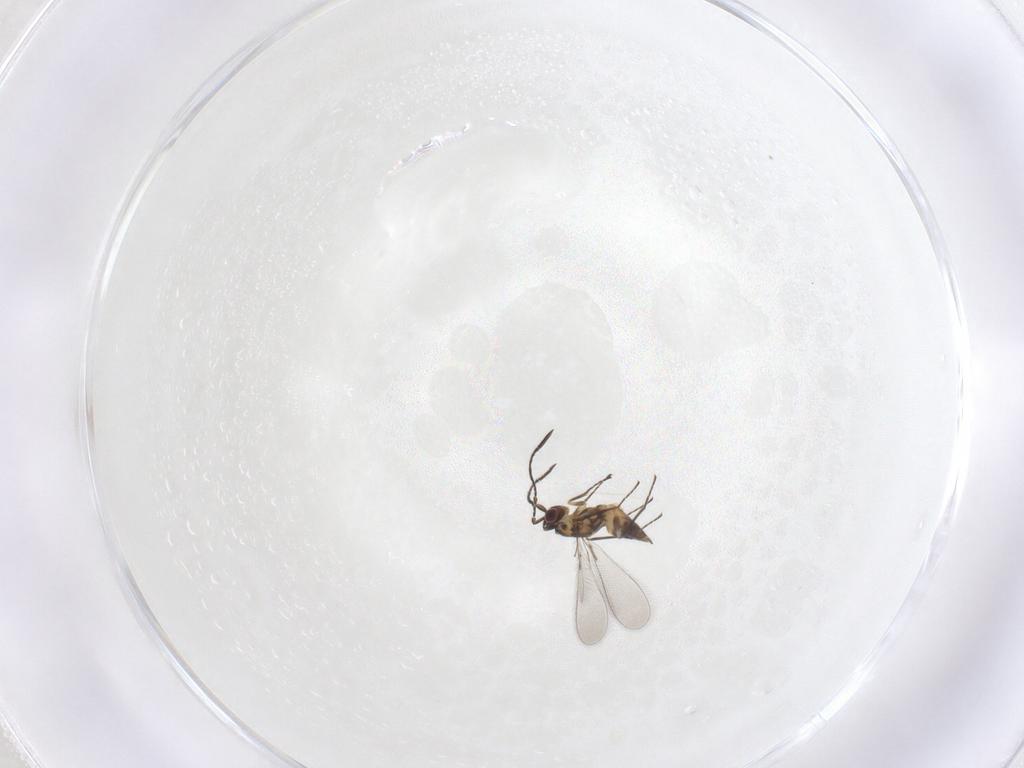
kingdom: Animalia
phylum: Arthropoda
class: Insecta
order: Hymenoptera
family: Mymaridae
